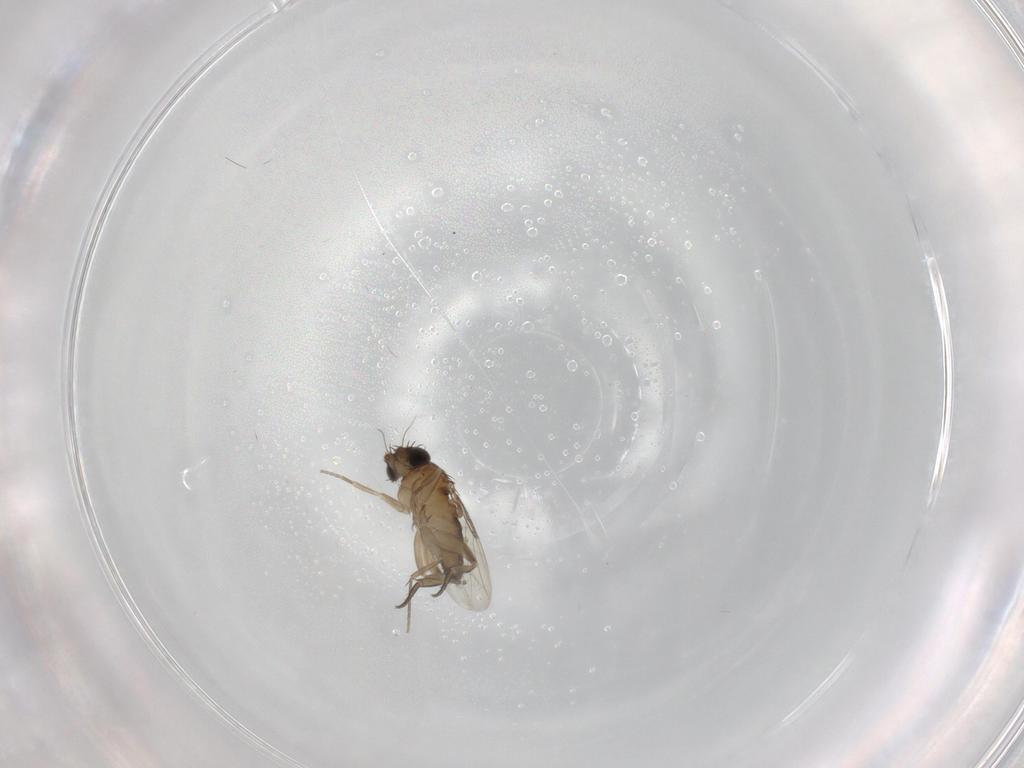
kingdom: Animalia
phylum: Arthropoda
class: Insecta
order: Diptera
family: Phoridae
